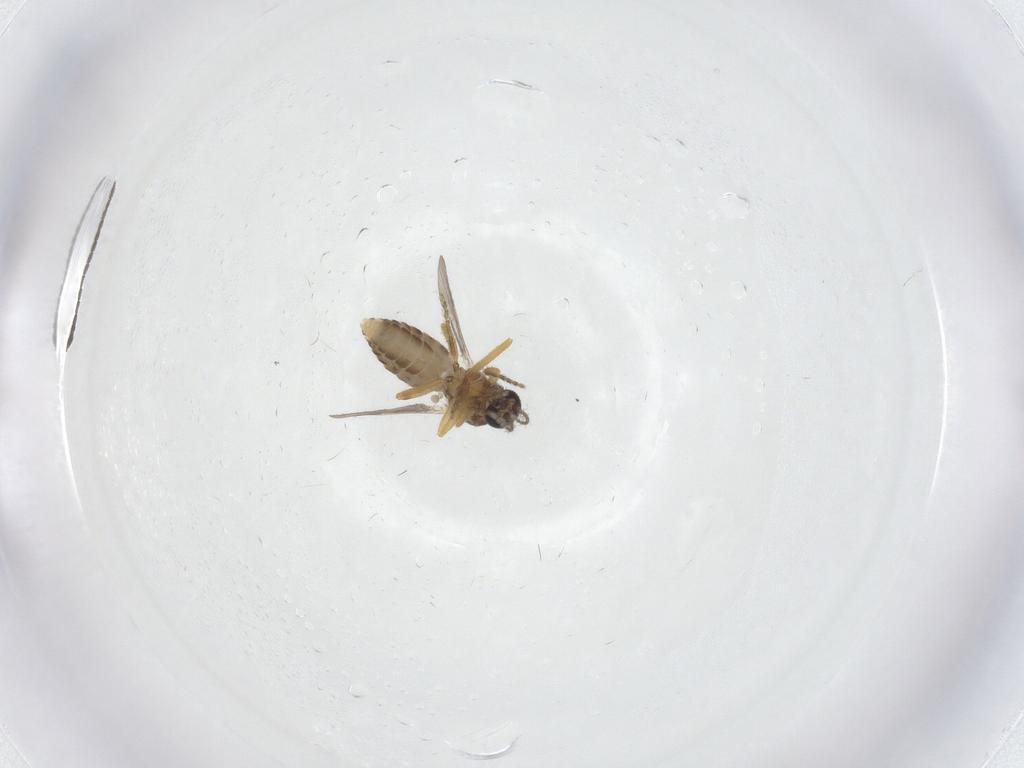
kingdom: Animalia
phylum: Arthropoda
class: Insecta
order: Diptera
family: Ceratopogonidae
